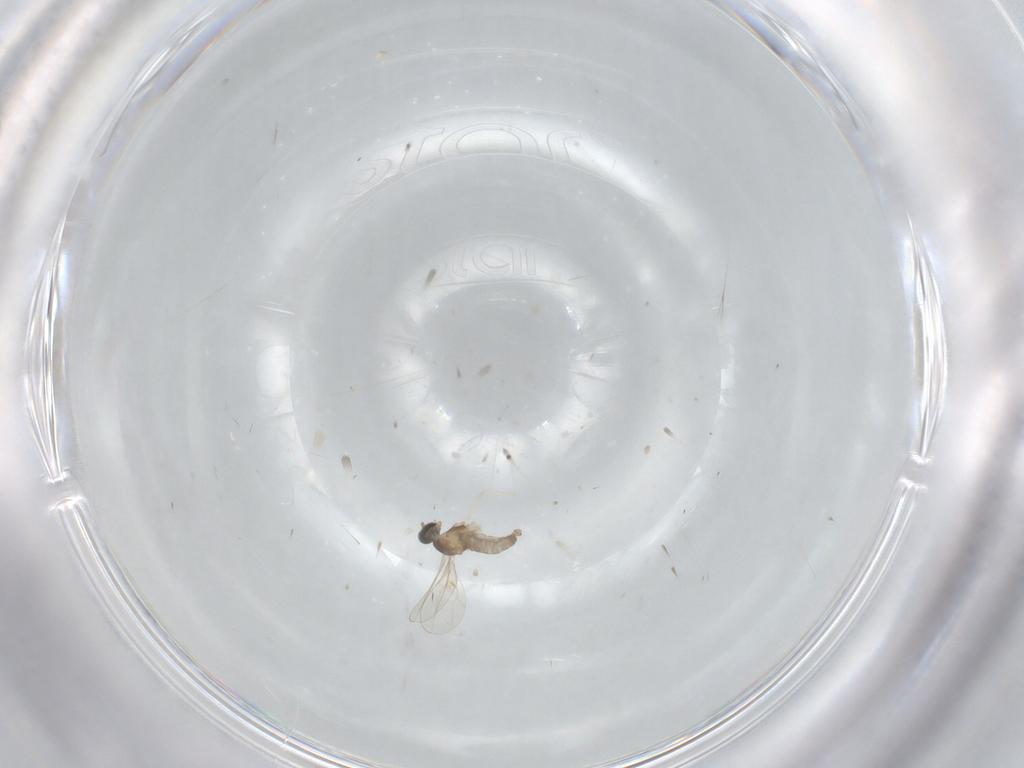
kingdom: Animalia
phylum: Arthropoda
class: Insecta
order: Diptera
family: Cecidomyiidae
